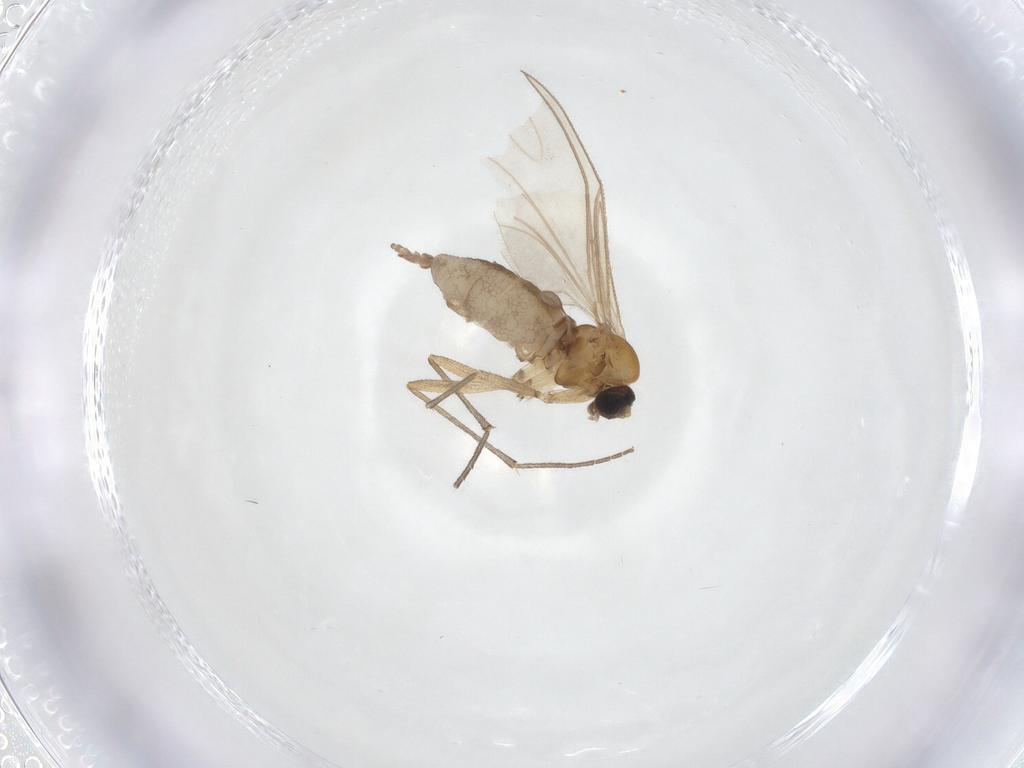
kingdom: Animalia
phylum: Arthropoda
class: Insecta
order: Diptera
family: Sciaridae
